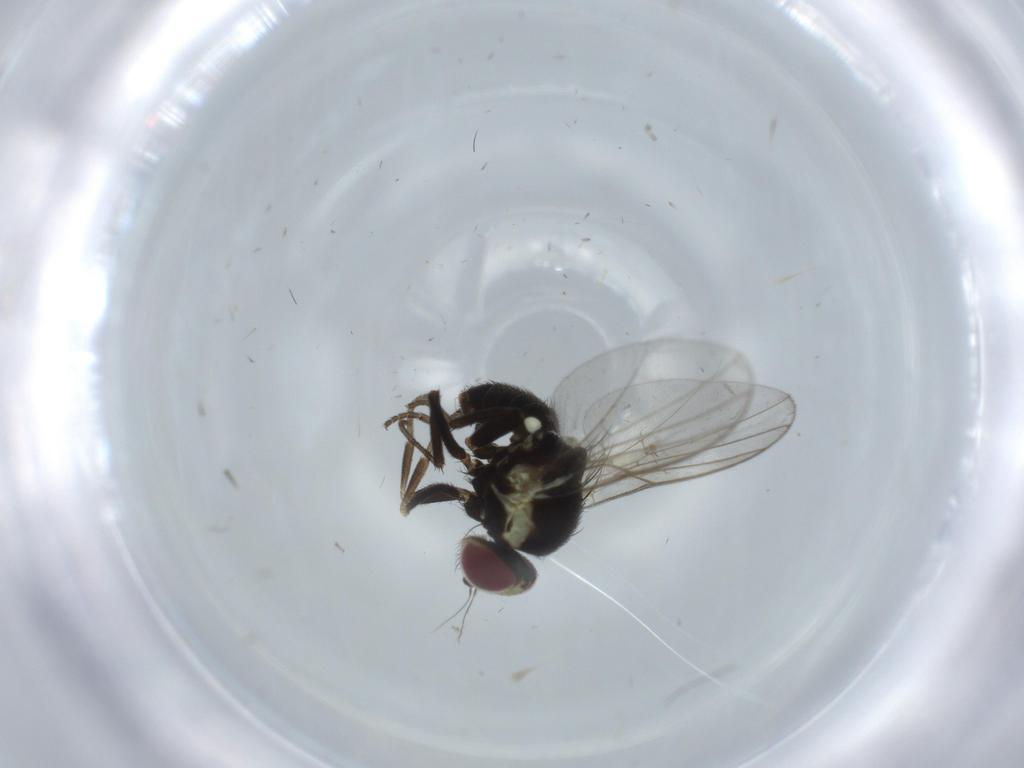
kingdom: Animalia
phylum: Arthropoda
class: Insecta
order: Diptera
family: Agromyzidae
